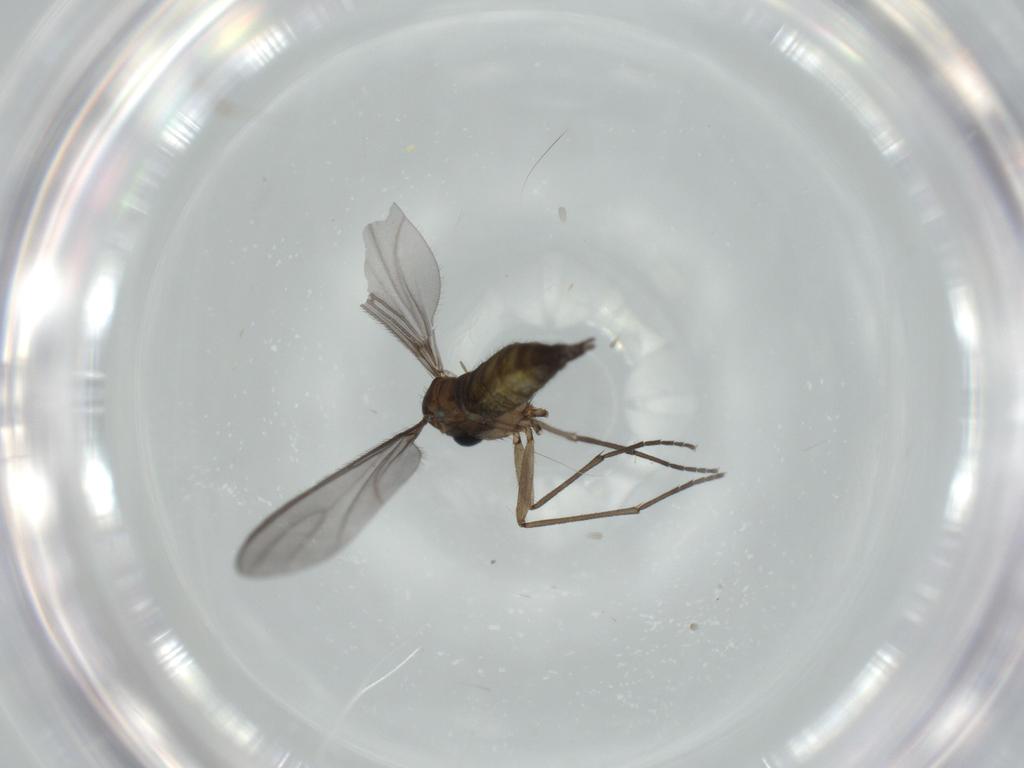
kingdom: Animalia
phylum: Arthropoda
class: Insecta
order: Diptera
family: Sciaridae
